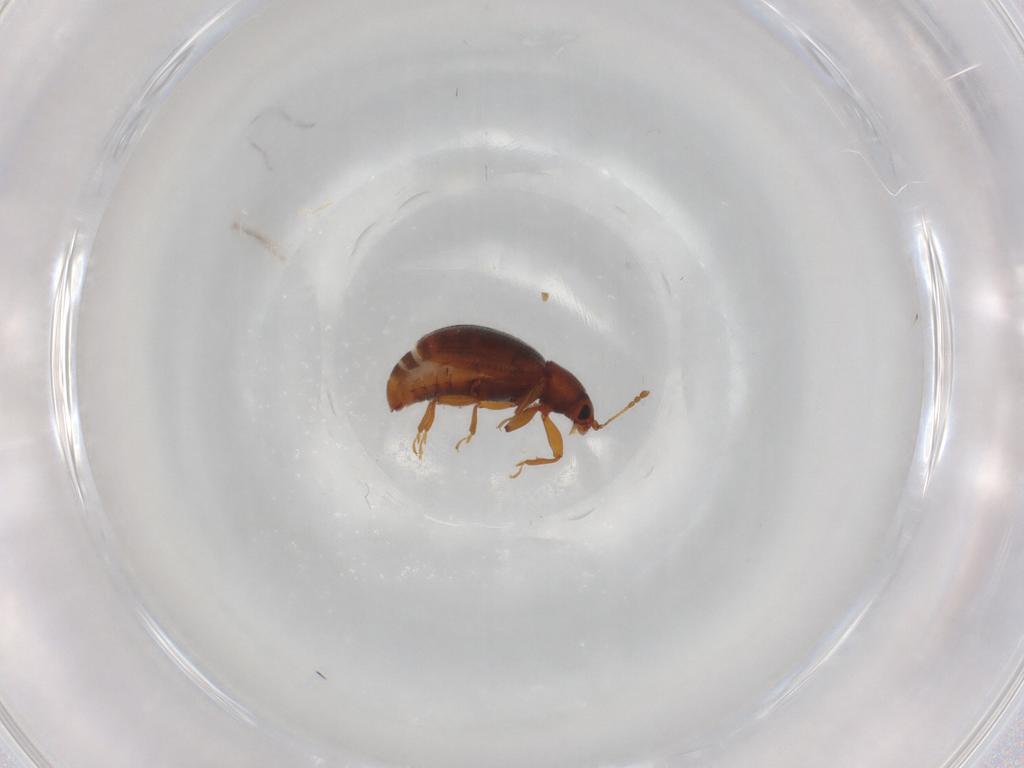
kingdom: Animalia
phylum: Arthropoda
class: Insecta
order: Coleoptera
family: Latridiidae
